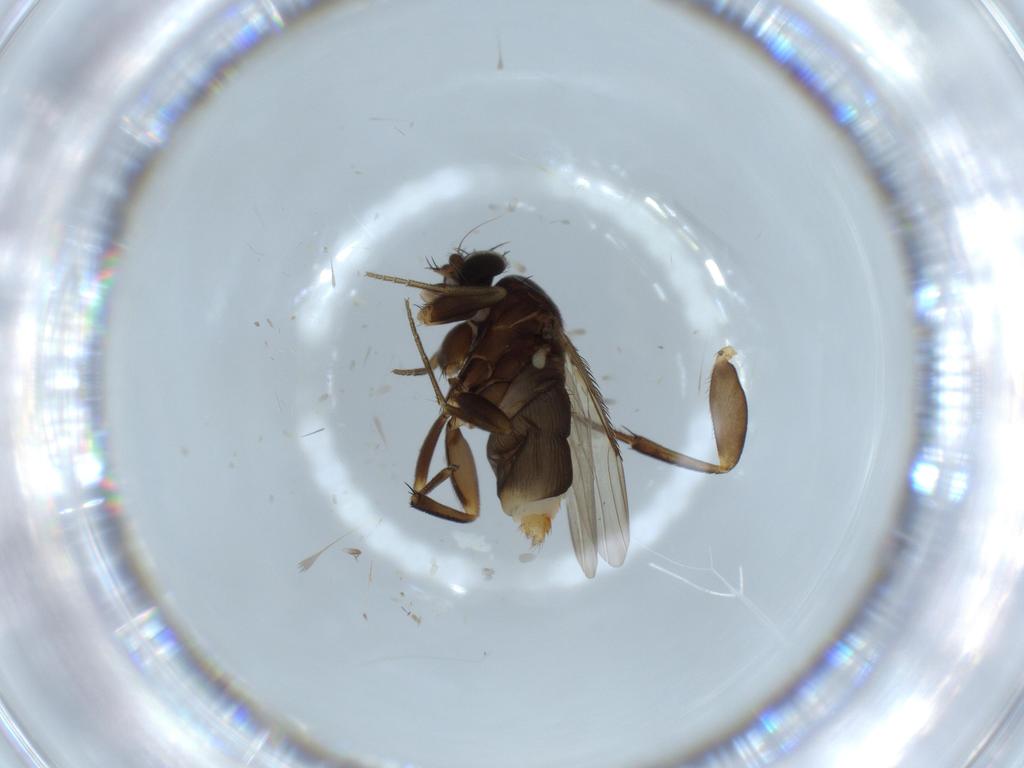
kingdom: Animalia
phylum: Arthropoda
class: Insecta
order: Diptera
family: Phoridae
